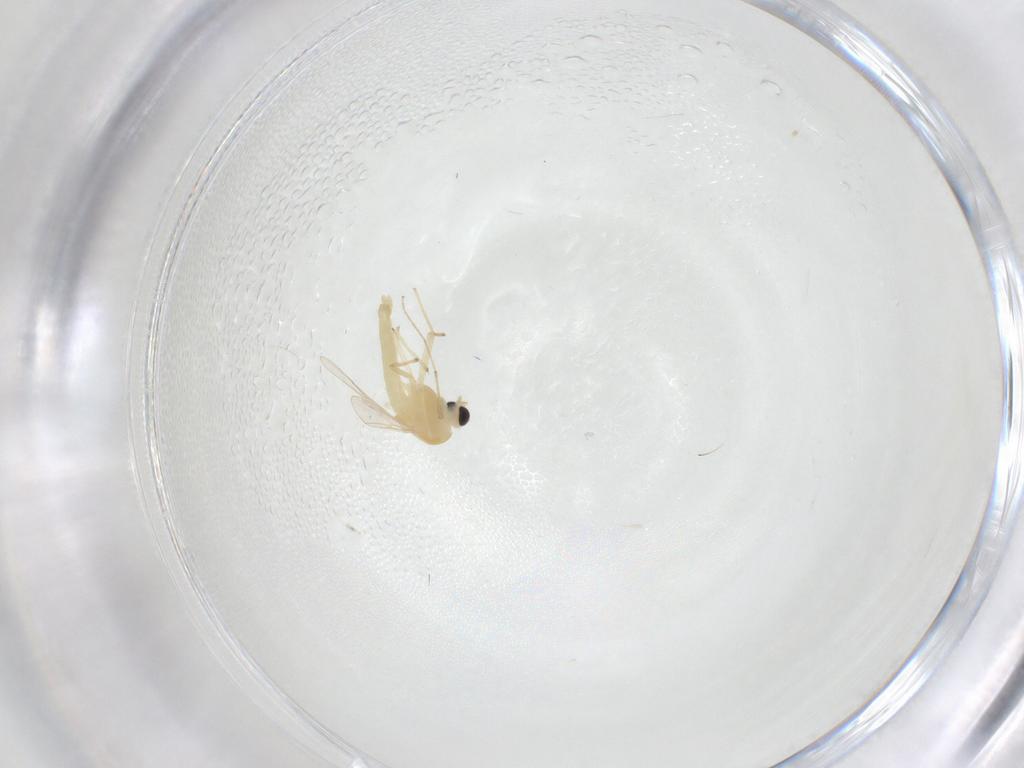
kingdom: Animalia
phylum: Arthropoda
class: Insecta
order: Diptera
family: Limoniidae
